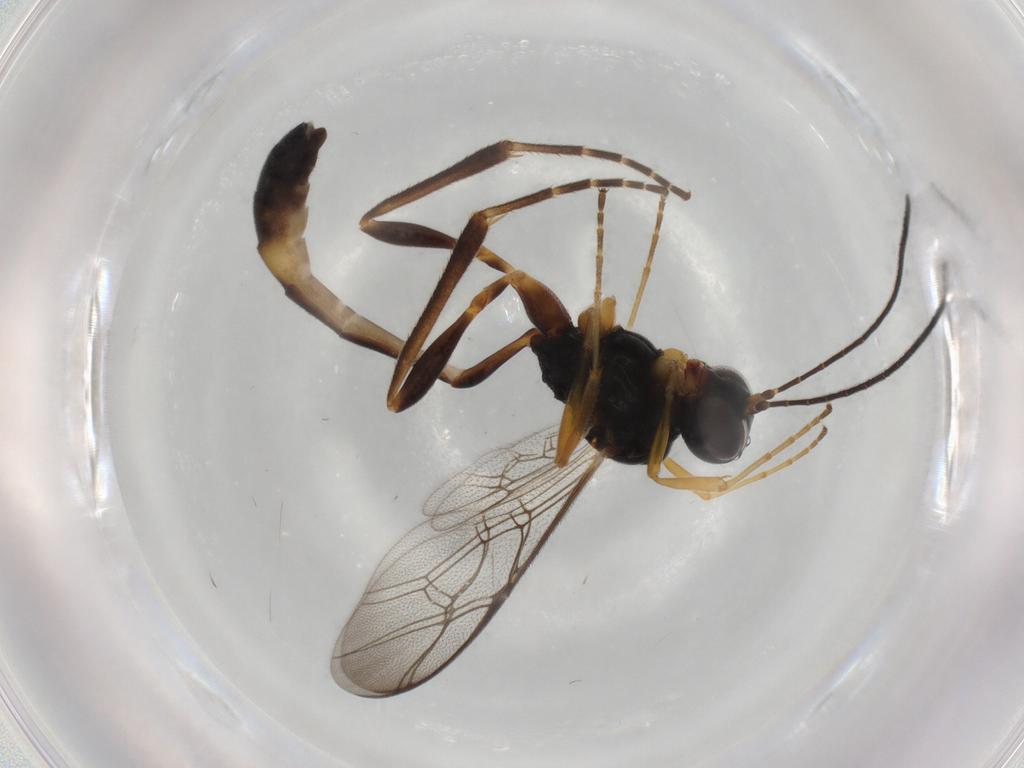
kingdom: Animalia
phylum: Arthropoda
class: Insecta
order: Hymenoptera
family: Ichneumonidae
